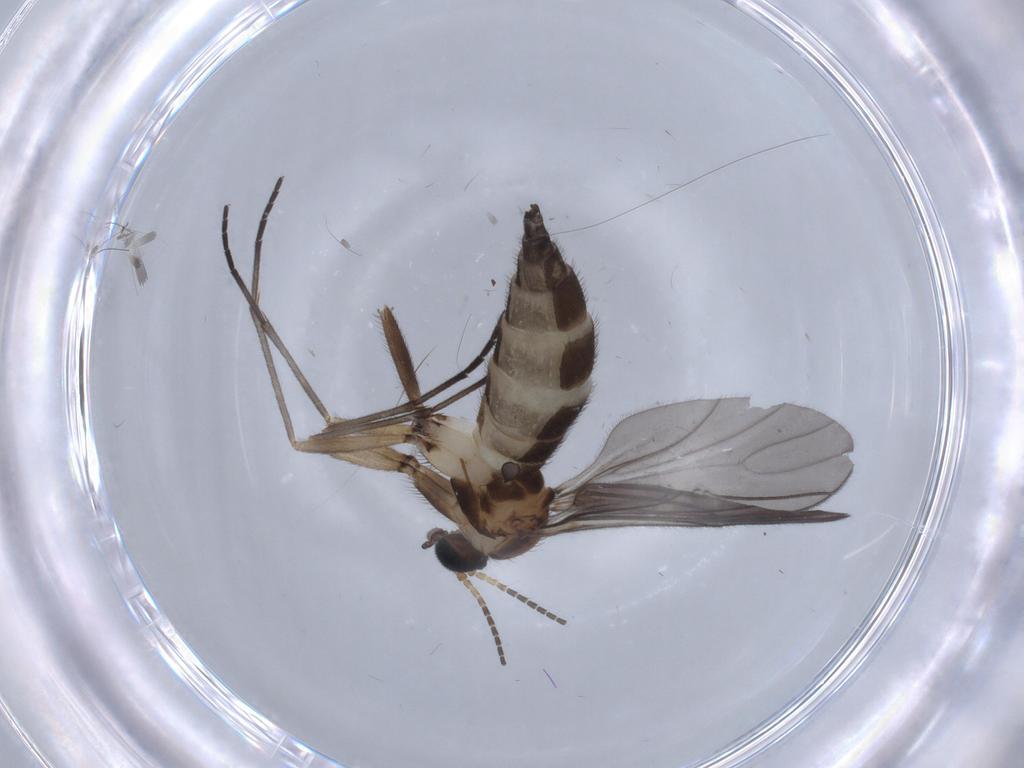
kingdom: Animalia
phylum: Arthropoda
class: Insecta
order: Diptera
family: Sciaridae
